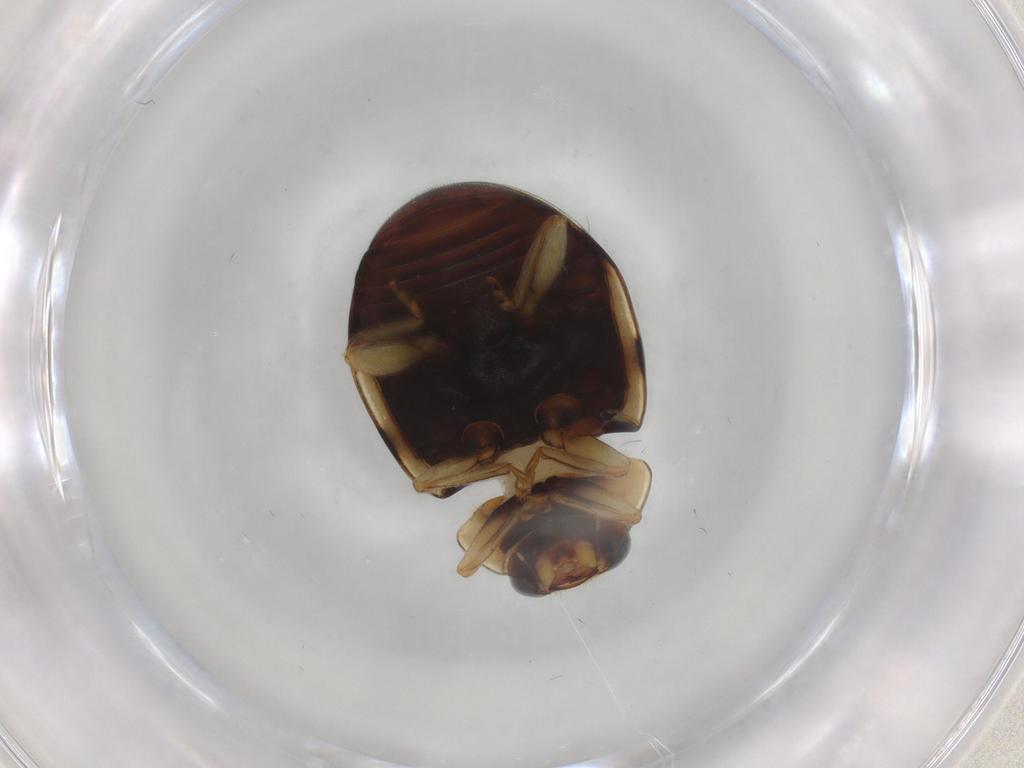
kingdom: Animalia
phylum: Arthropoda
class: Insecta
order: Coleoptera
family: Coccinellidae
